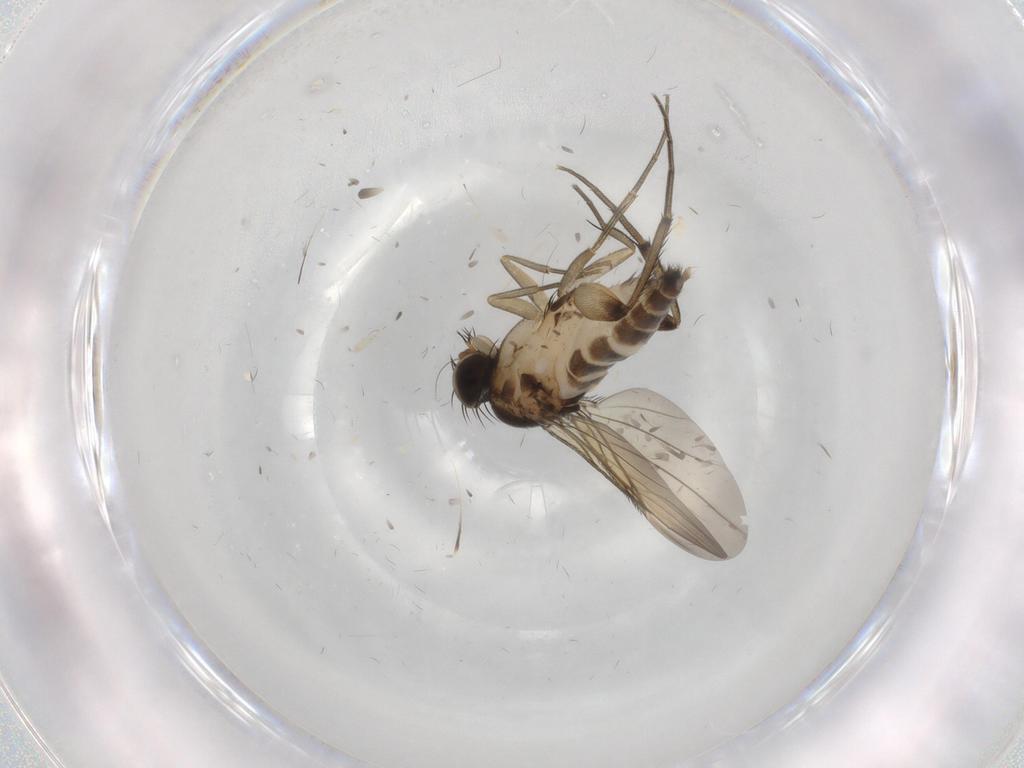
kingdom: Animalia
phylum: Arthropoda
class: Insecta
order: Diptera
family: Phoridae
